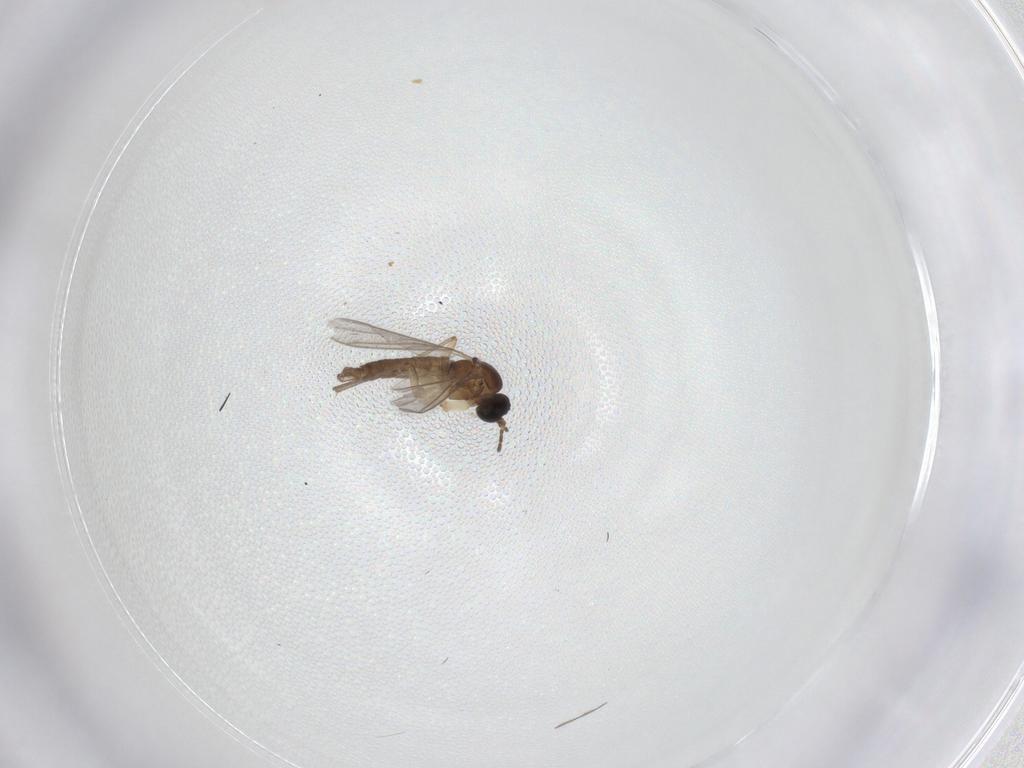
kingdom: Animalia
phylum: Arthropoda
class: Insecta
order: Diptera
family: Sciaridae
